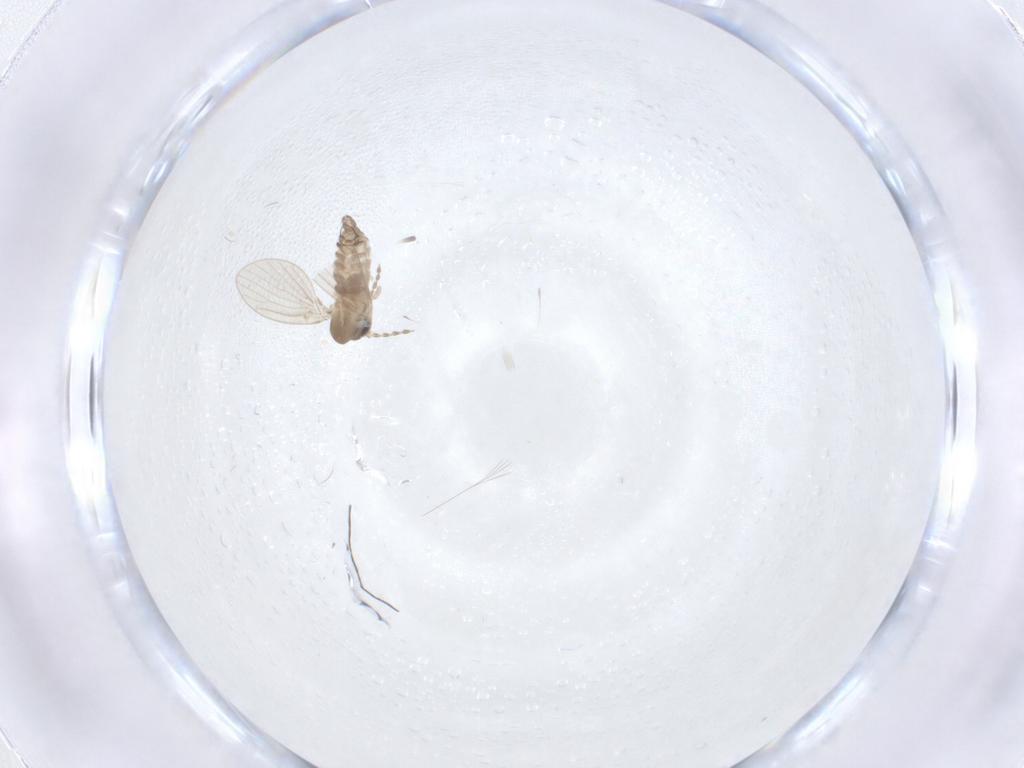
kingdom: Animalia
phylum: Arthropoda
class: Insecta
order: Diptera
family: Psychodidae
